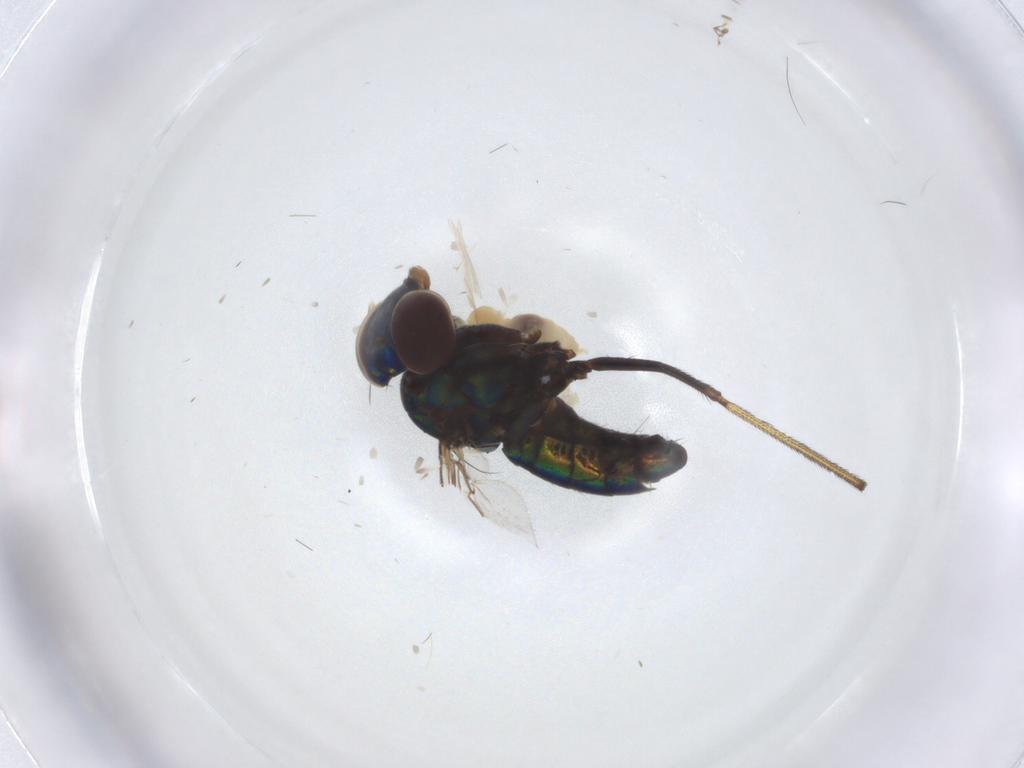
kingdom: Animalia
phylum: Arthropoda
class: Insecta
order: Diptera
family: Dolichopodidae
